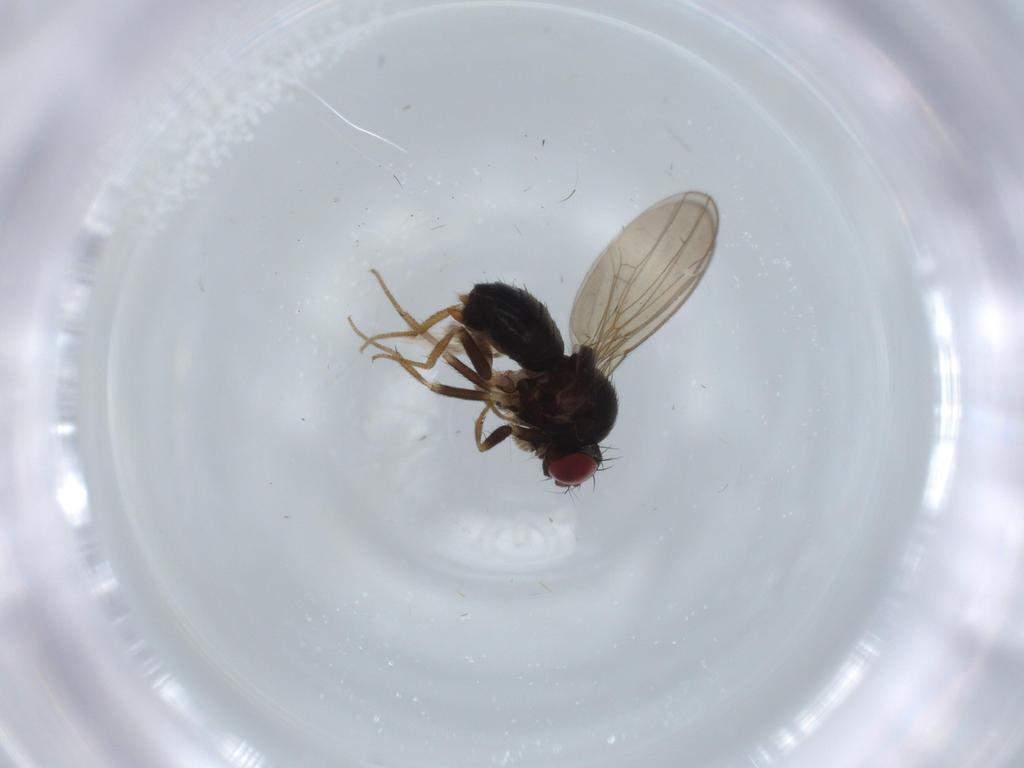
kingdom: Animalia
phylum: Arthropoda
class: Insecta
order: Diptera
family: Drosophilidae
